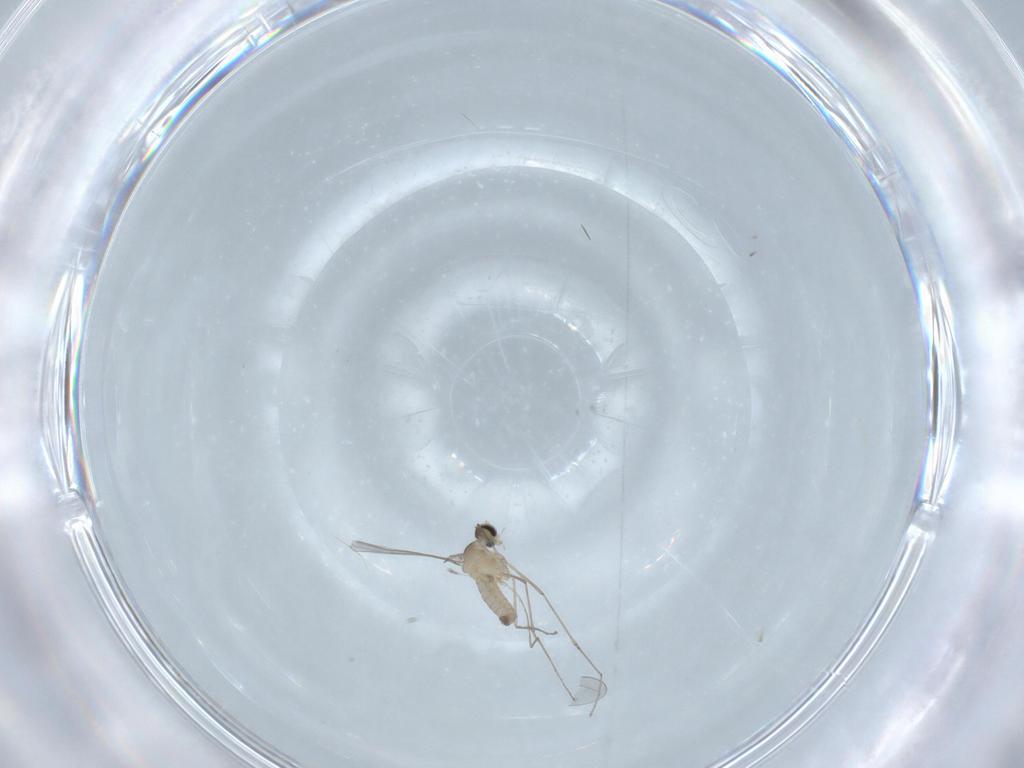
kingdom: Animalia
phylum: Arthropoda
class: Insecta
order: Diptera
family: Cecidomyiidae
